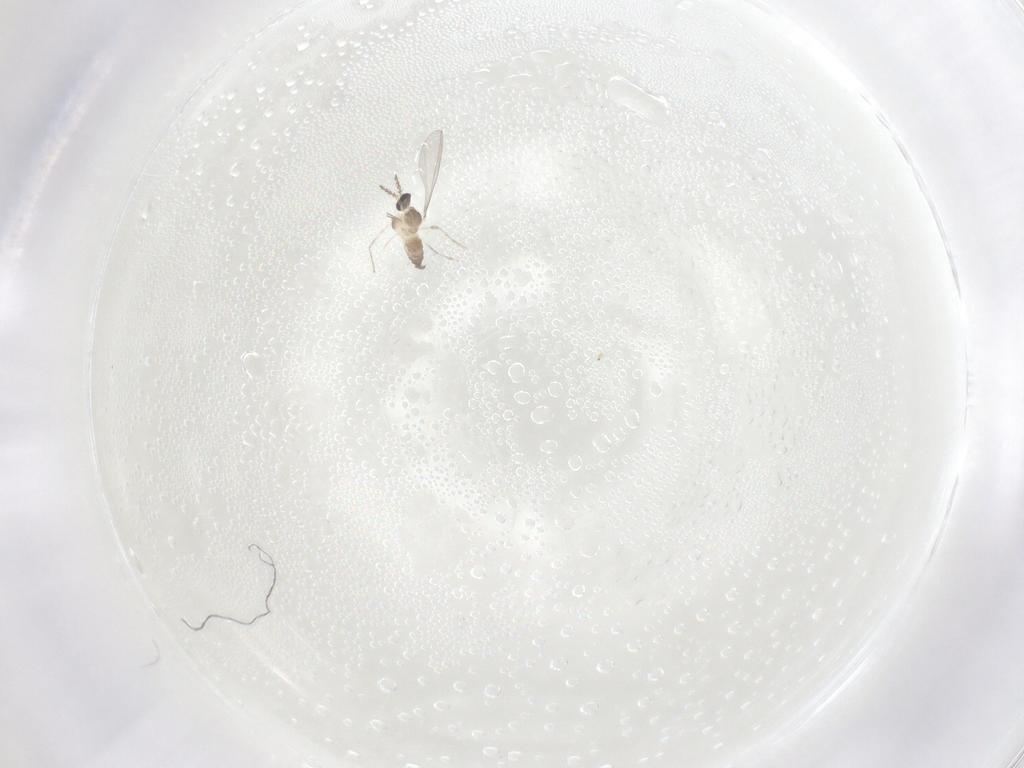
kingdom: Animalia
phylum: Arthropoda
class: Insecta
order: Diptera
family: Cecidomyiidae
